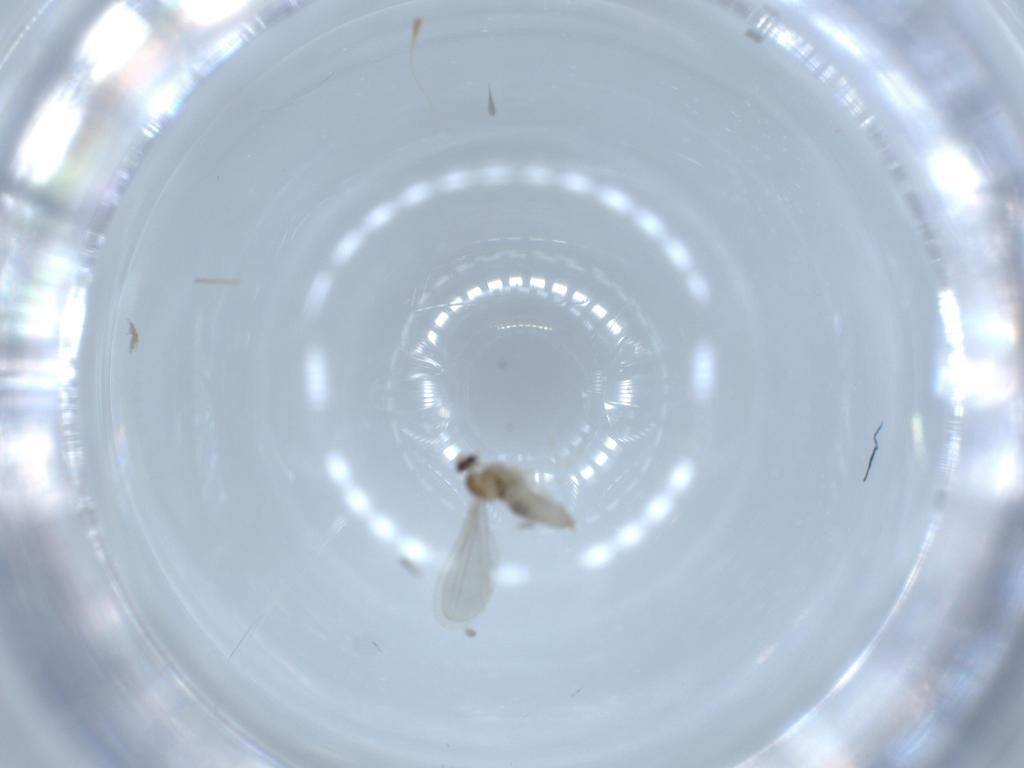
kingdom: Animalia
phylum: Arthropoda
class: Insecta
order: Diptera
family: Cecidomyiidae
